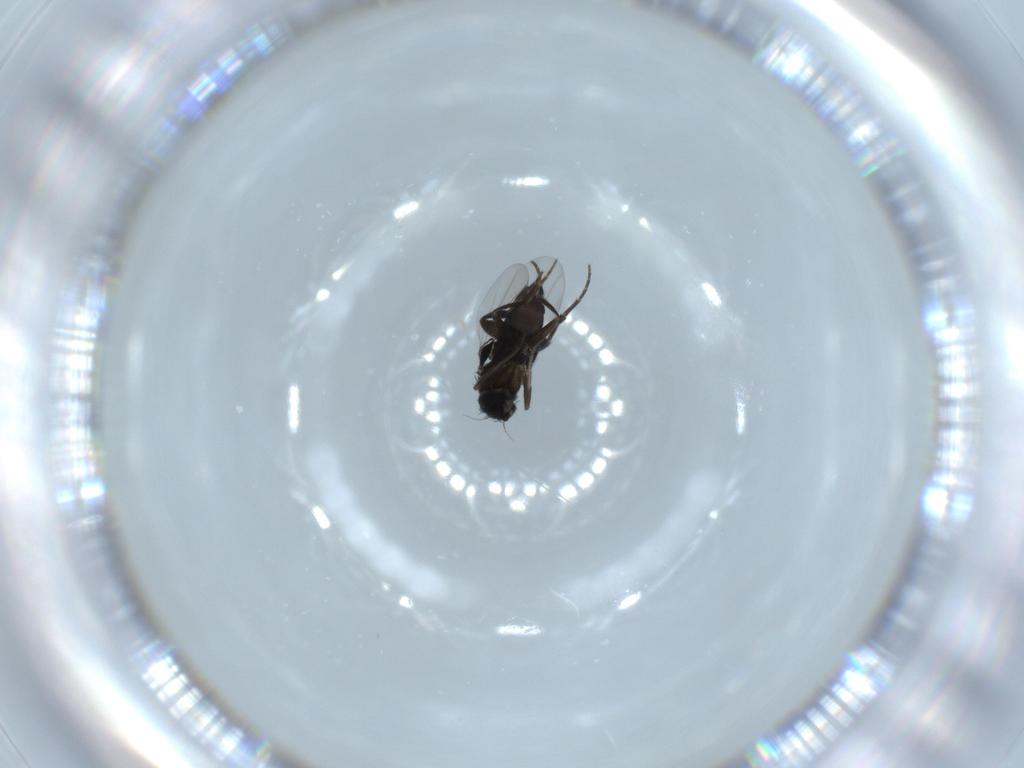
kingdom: Animalia
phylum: Arthropoda
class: Insecta
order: Diptera
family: Phoridae
